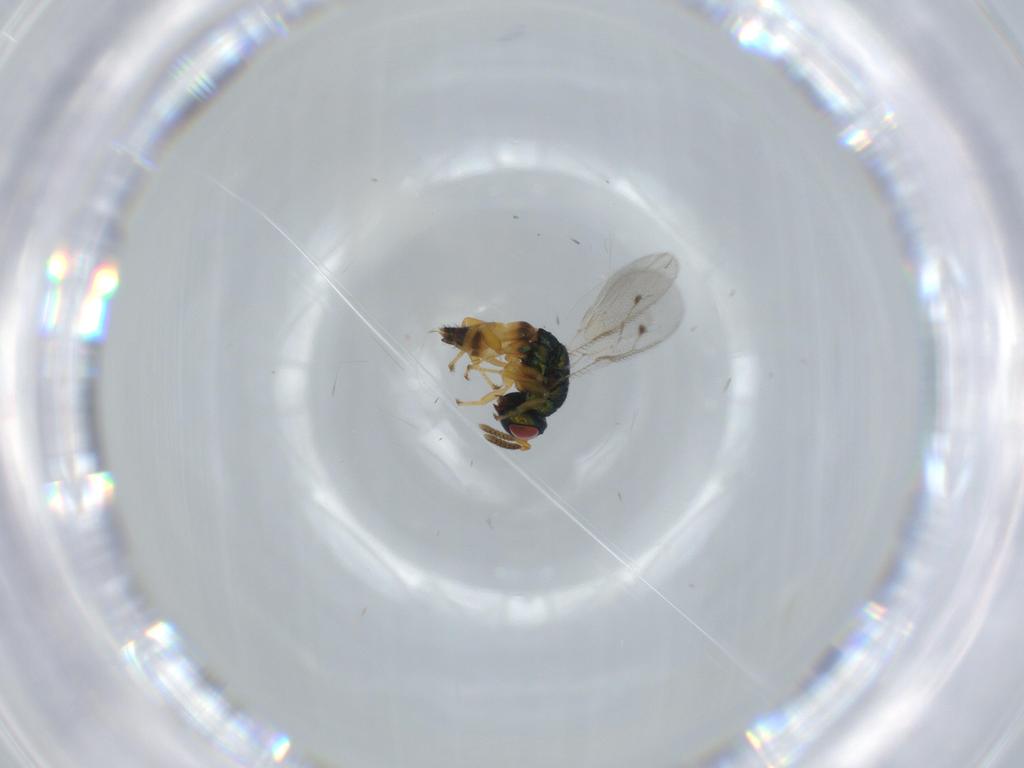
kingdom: Animalia
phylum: Arthropoda
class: Insecta
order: Hymenoptera
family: Pteromalidae
